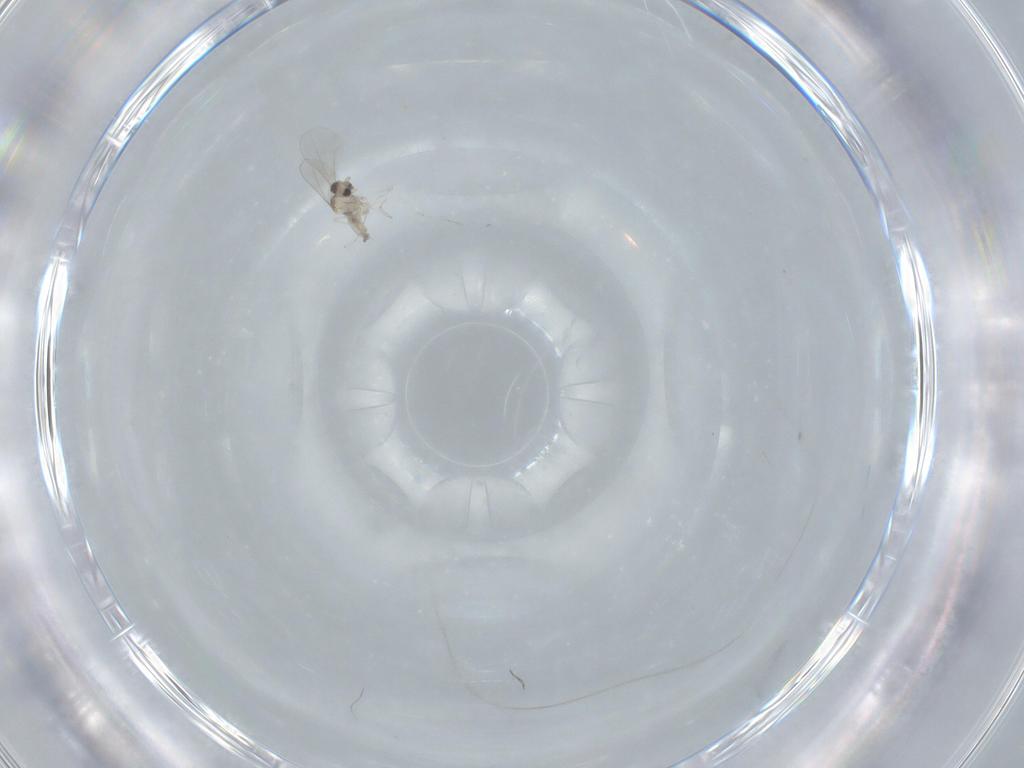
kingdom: Animalia
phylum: Arthropoda
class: Insecta
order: Diptera
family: Cecidomyiidae
